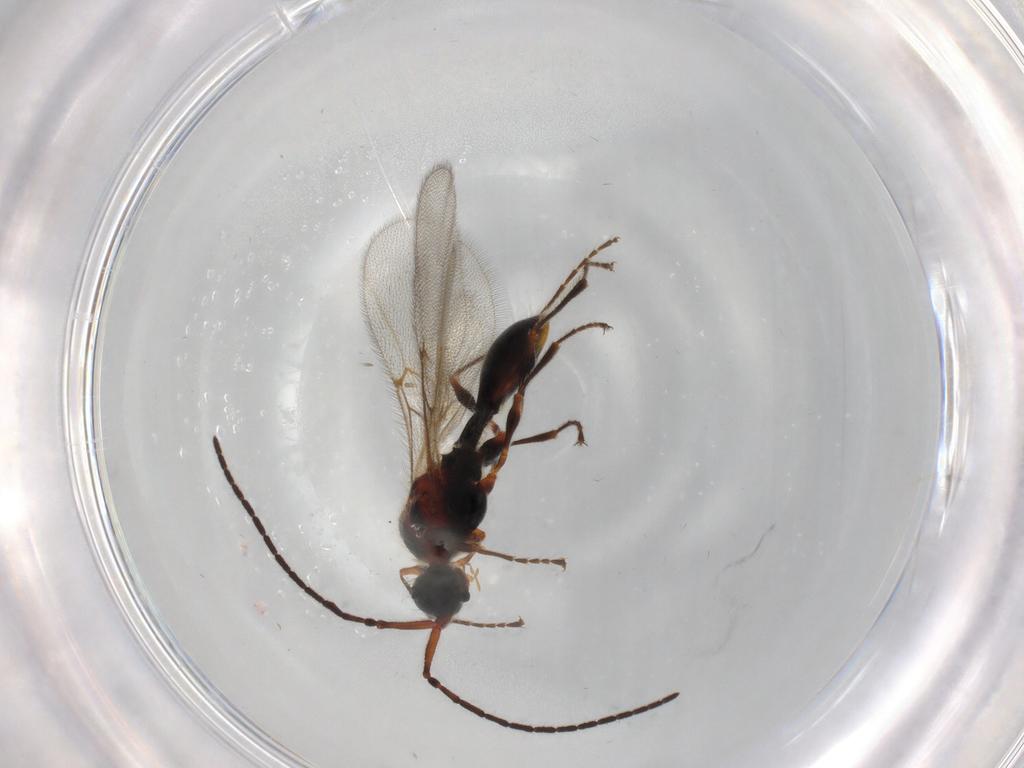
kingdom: Animalia
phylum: Arthropoda
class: Insecta
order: Hymenoptera
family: Diapriidae
